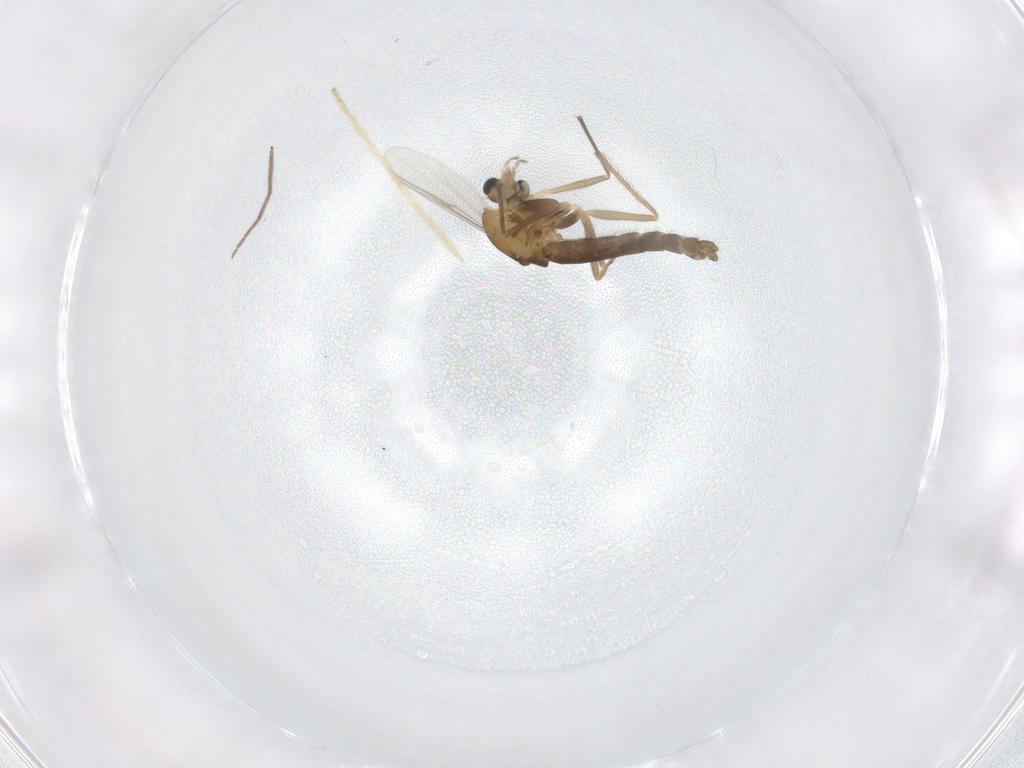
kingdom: Animalia
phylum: Arthropoda
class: Insecta
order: Diptera
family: Chironomidae
